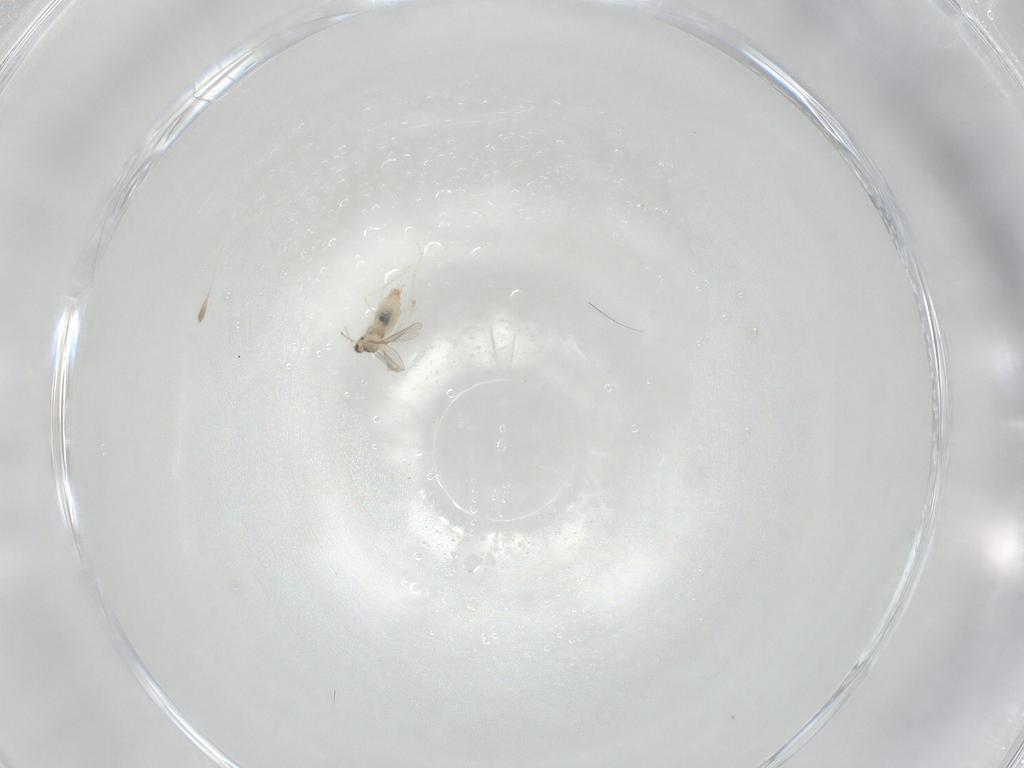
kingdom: Animalia
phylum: Arthropoda
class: Insecta
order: Diptera
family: Cecidomyiidae
